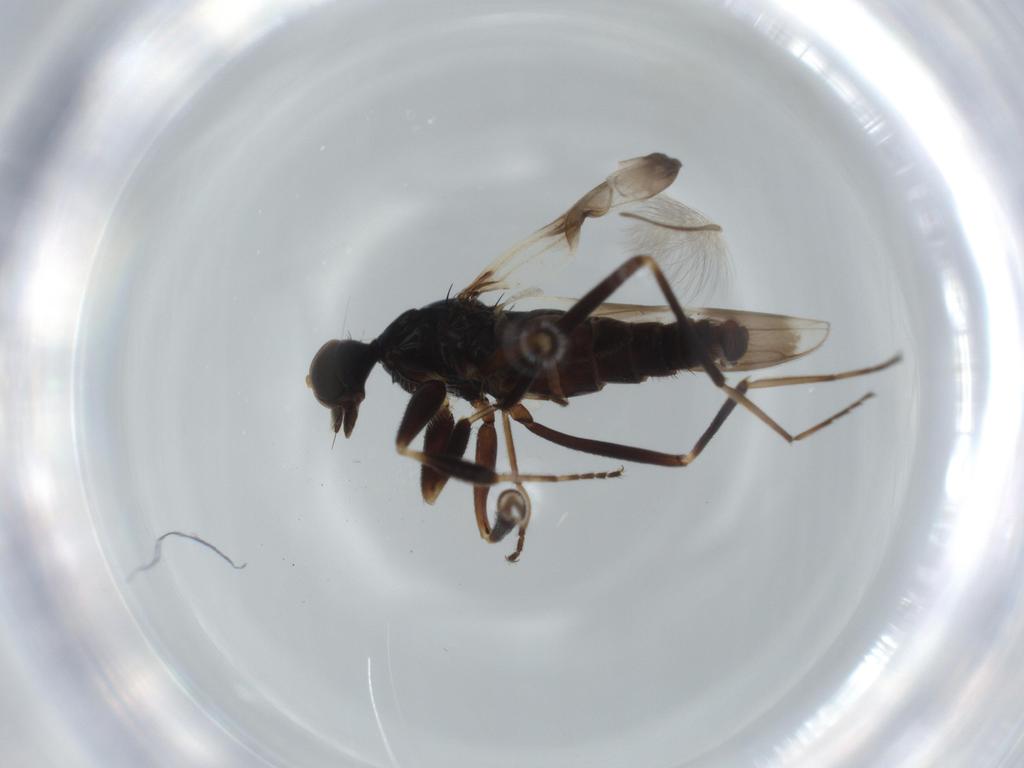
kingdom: Animalia
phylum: Arthropoda
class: Insecta
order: Diptera
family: Hybotidae
